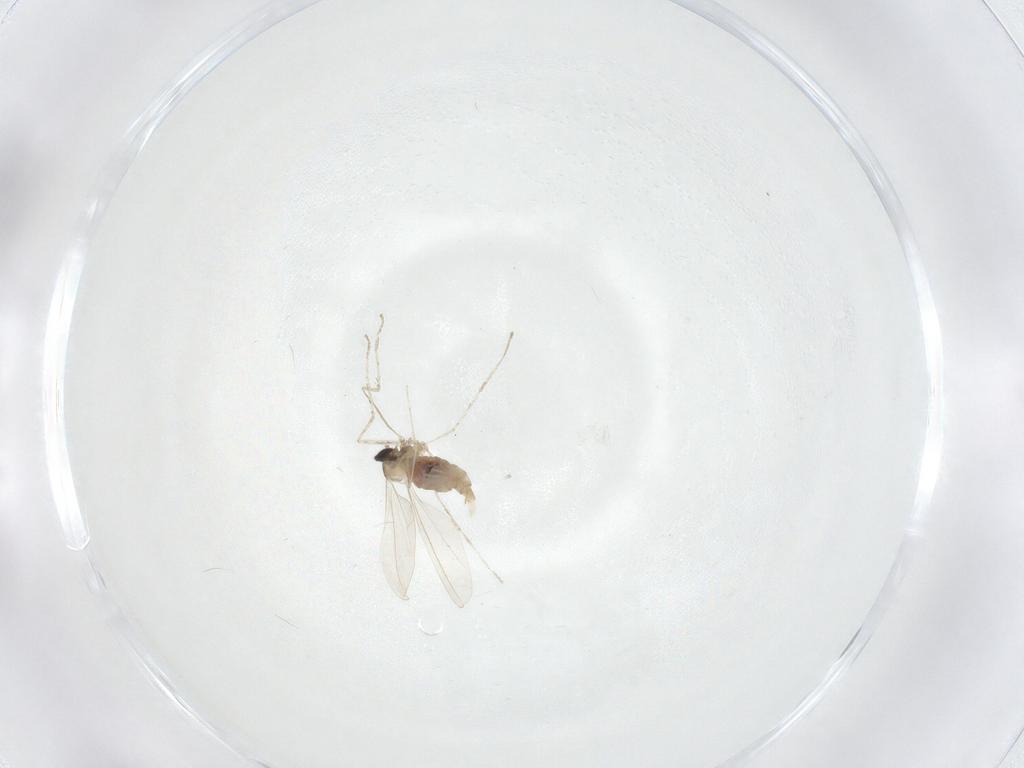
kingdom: Animalia
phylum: Arthropoda
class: Insecta
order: Diptera
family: Cecidomyiidae
